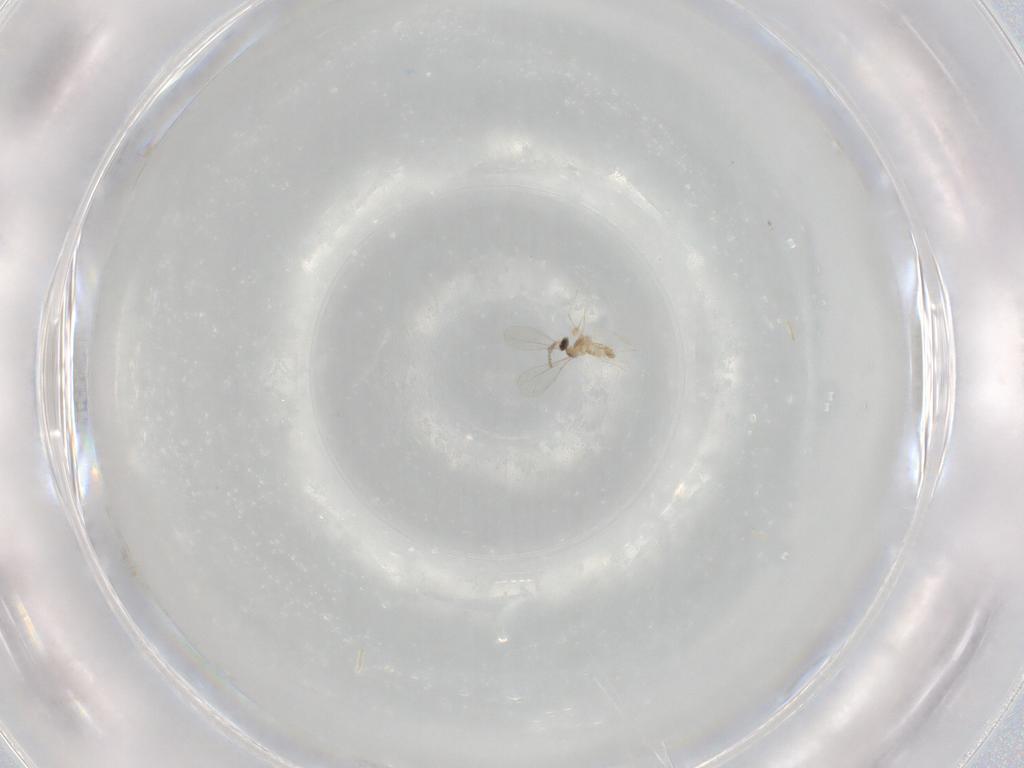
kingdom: Animalia
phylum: Arthropoda
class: Insecta
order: Diptera
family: Cecidomyiidae
